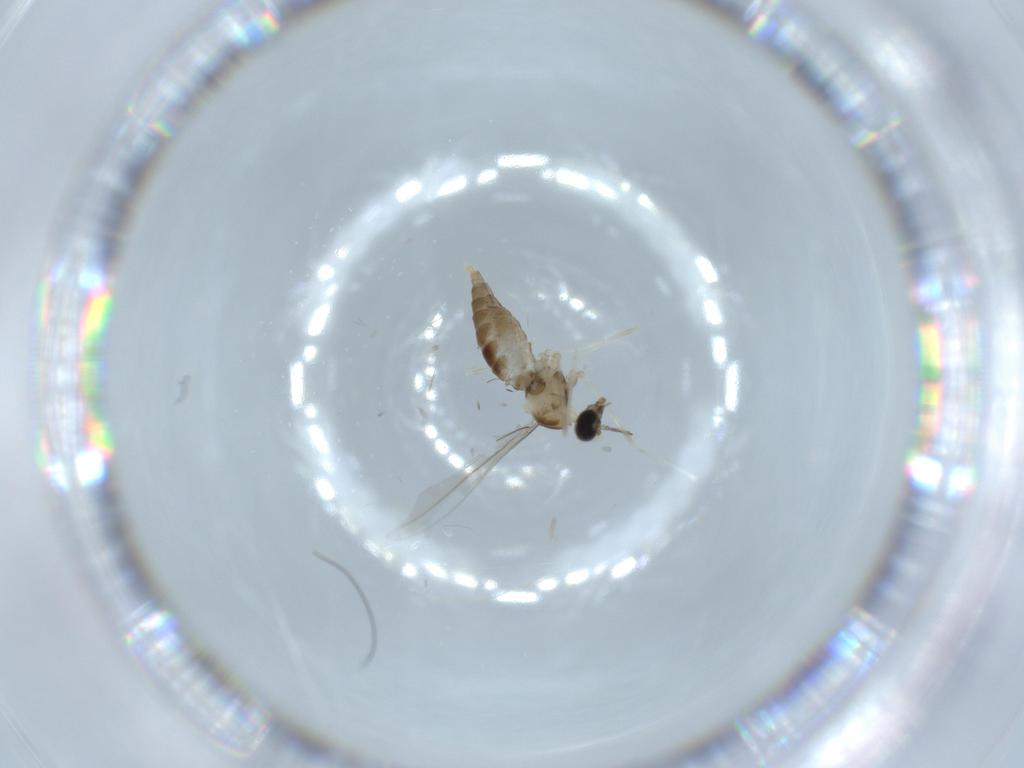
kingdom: Animalia
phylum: Arthropoda
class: Insecta
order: Diptera
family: Cecidomyiidae
